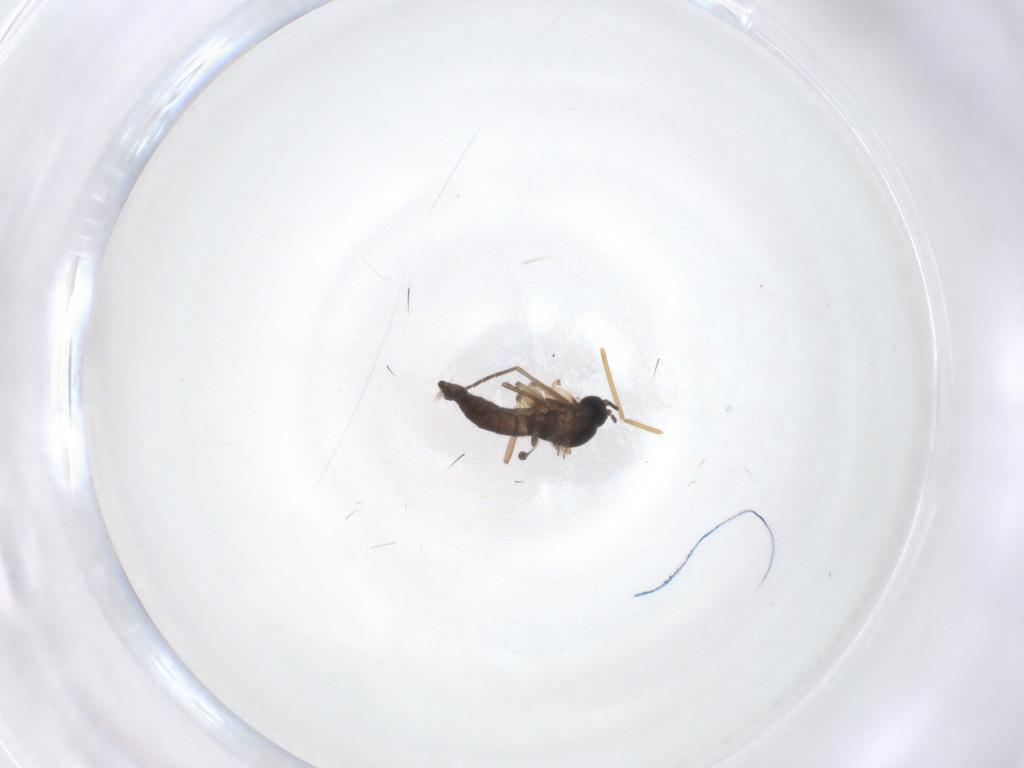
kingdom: Animalia
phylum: Arthropoda
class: Insecta
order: Diptera
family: Sciaridae
